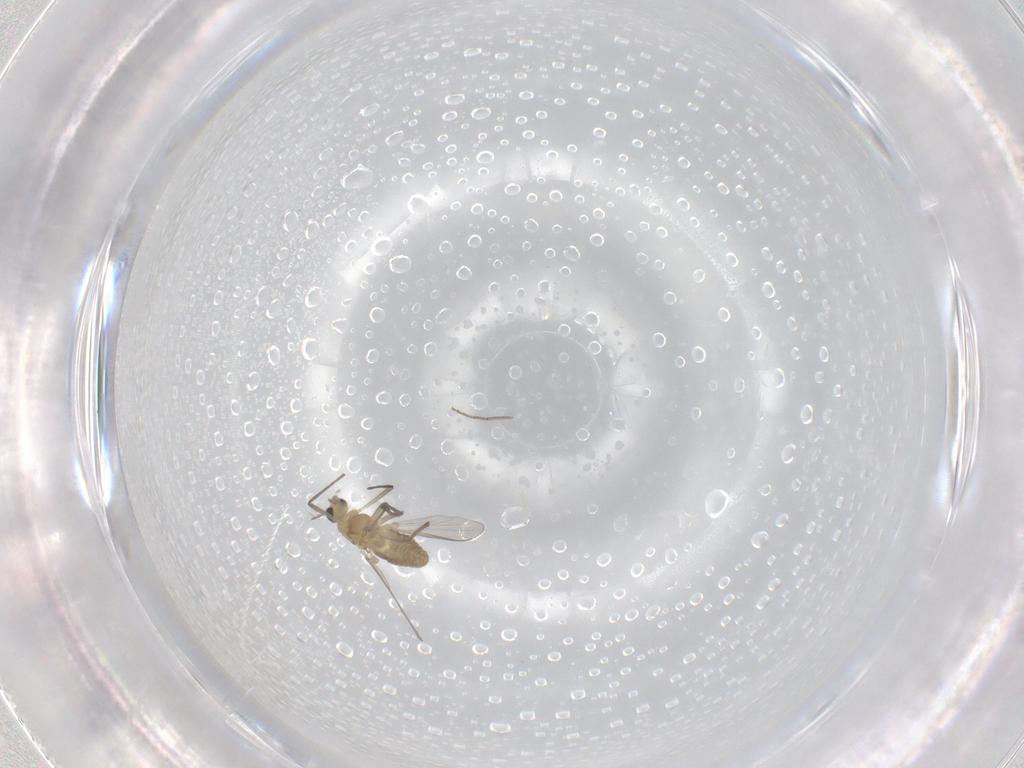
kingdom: Animalia
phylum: Arthropoda
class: Insecta
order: Diptera
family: Chironomidae
